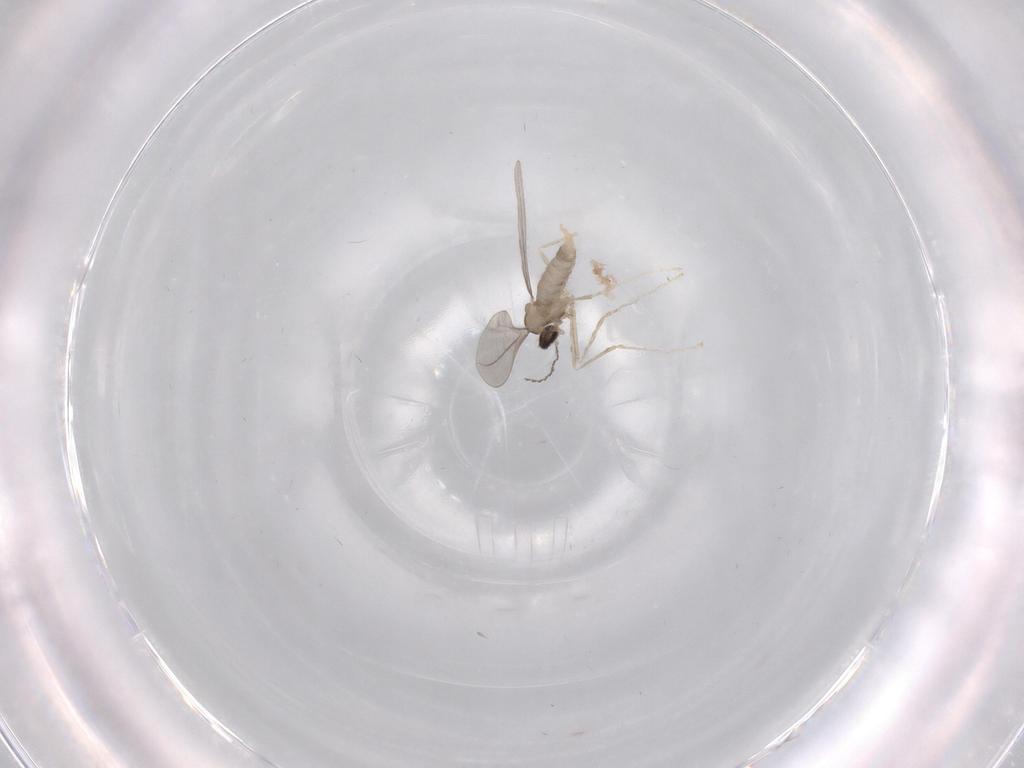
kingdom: Animalia
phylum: Arthropoda
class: Insecta
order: Diptera
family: Cecidomyiidae
